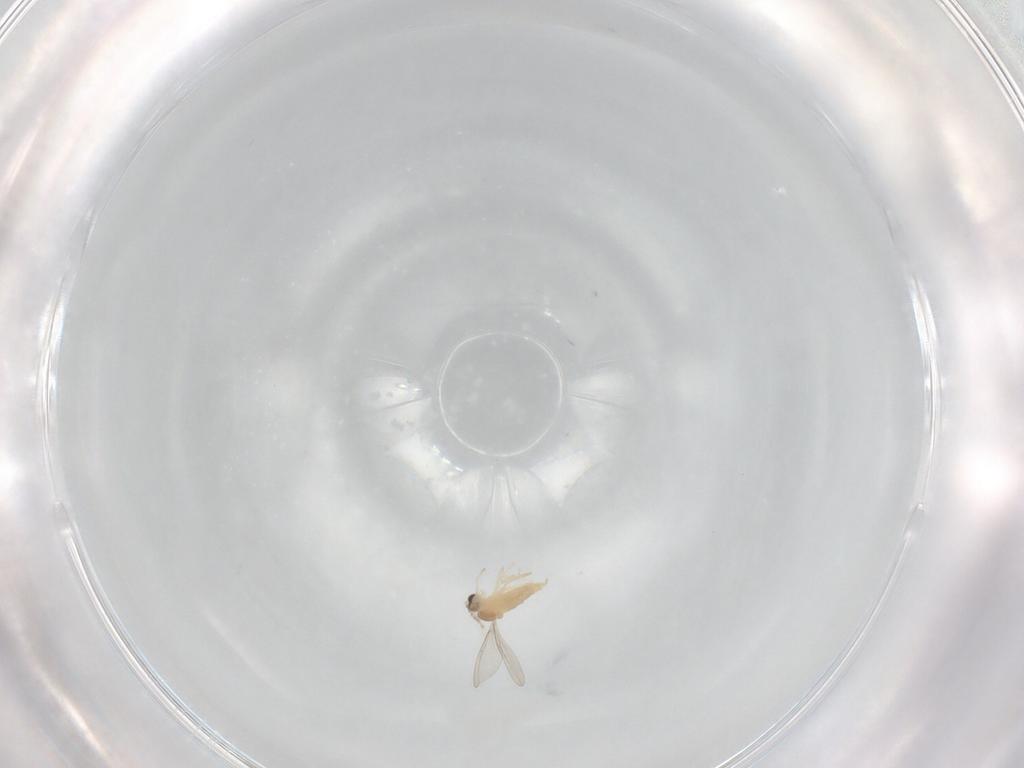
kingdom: Animalia
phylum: Arthropoda
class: Insecta
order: Diptera
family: Cecidomyiidae
